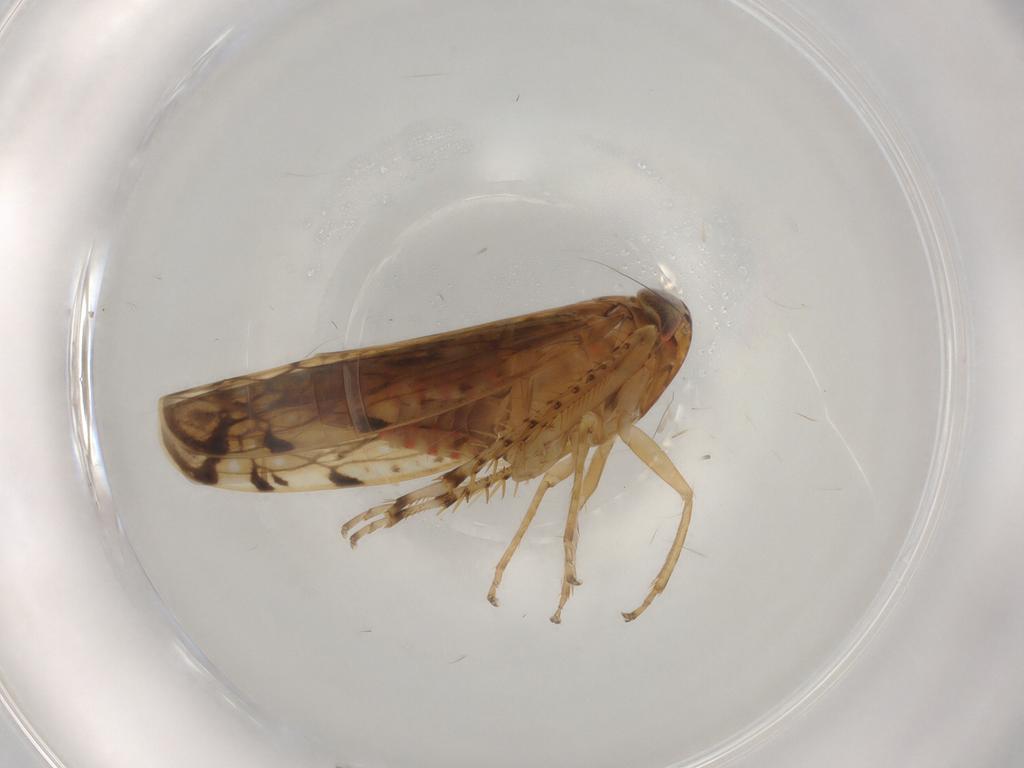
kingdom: Animalia
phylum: Arthropoda
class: Insecta
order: Hemiptera
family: Cicadellidae
